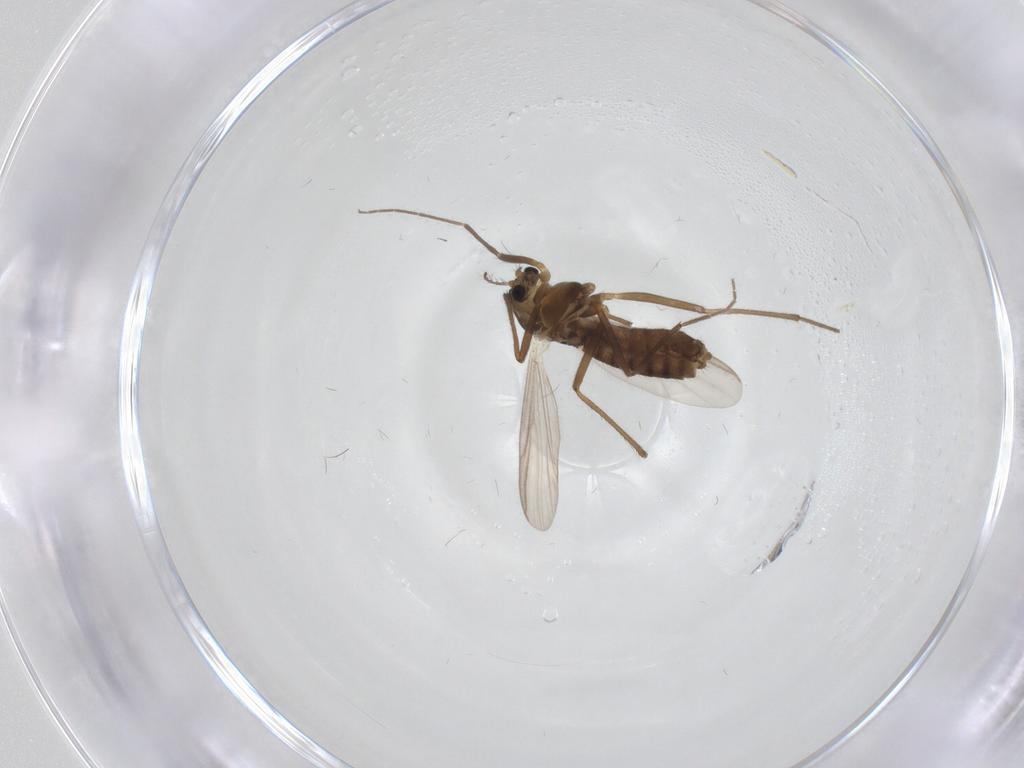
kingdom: Animalia
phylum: Arthropoda
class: Insecta
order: Diptera
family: Chironomidae
